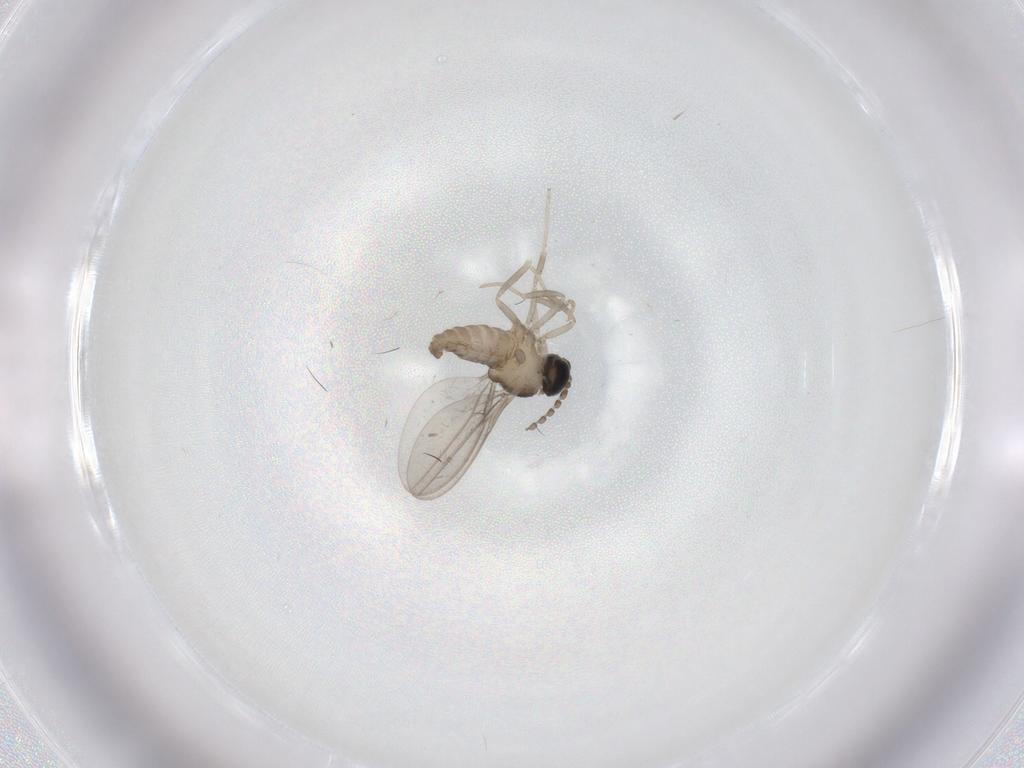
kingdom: Animalia
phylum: Arthropoda
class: Insecta
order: Diptera
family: Cecidomyiidae
